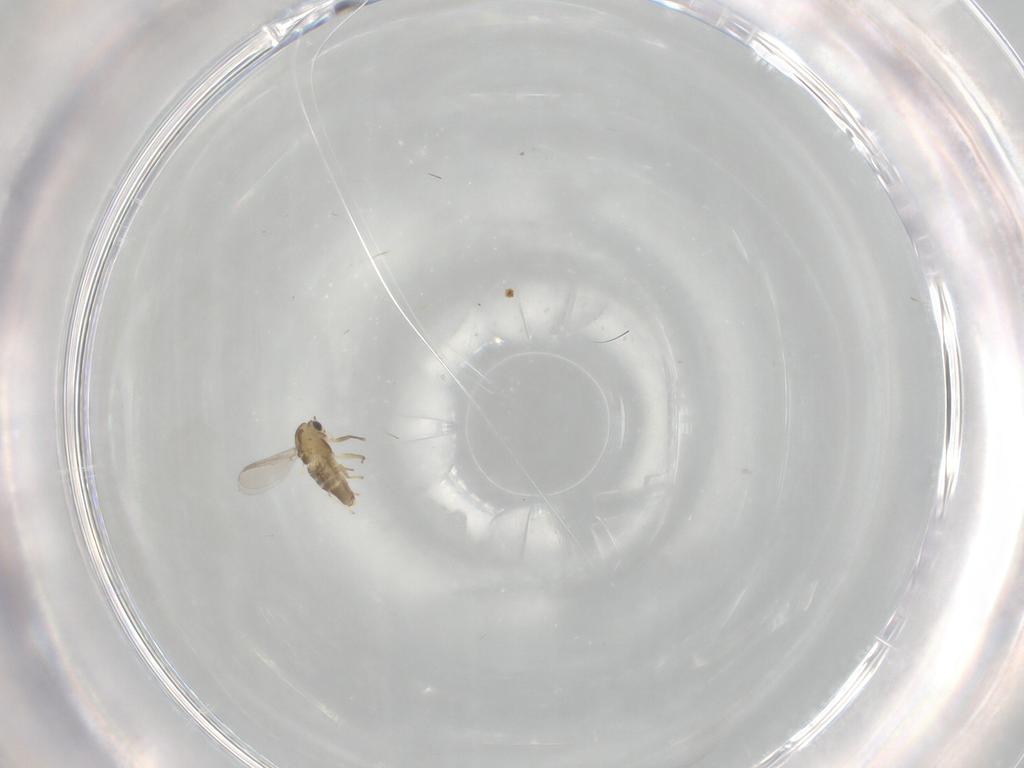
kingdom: Animalia
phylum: Arthropoda
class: Insecta
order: Diptera
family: Chironomidae
